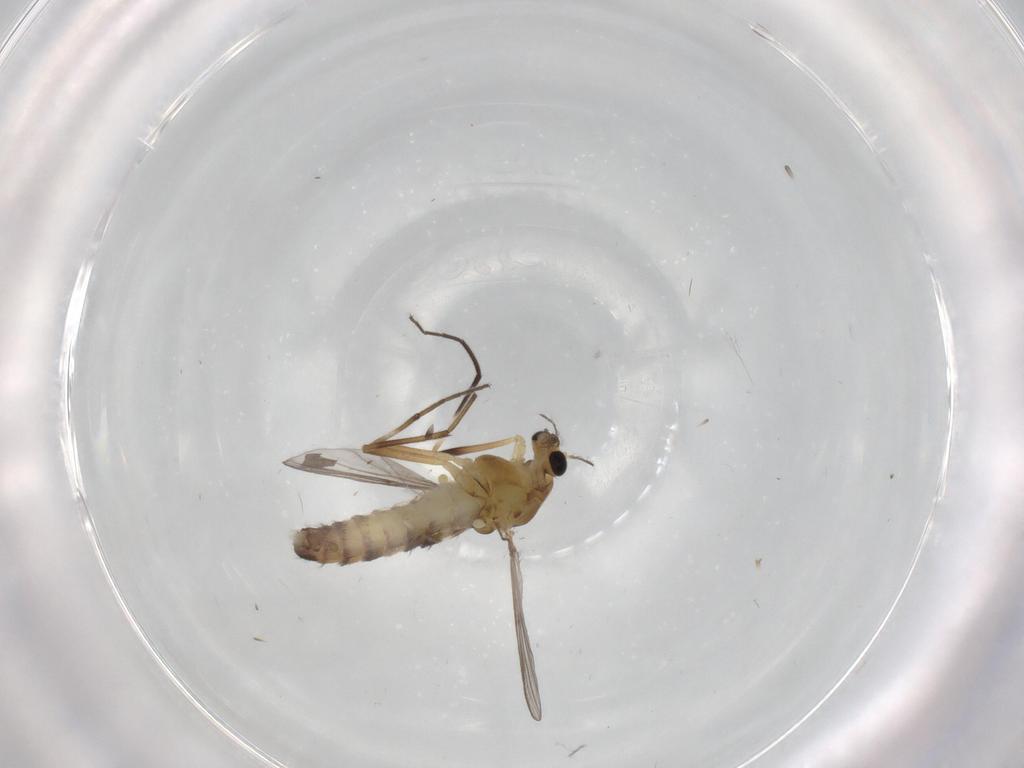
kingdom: Animalia
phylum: Arthropoda
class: Insecta
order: Diptera
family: Chironomidae
